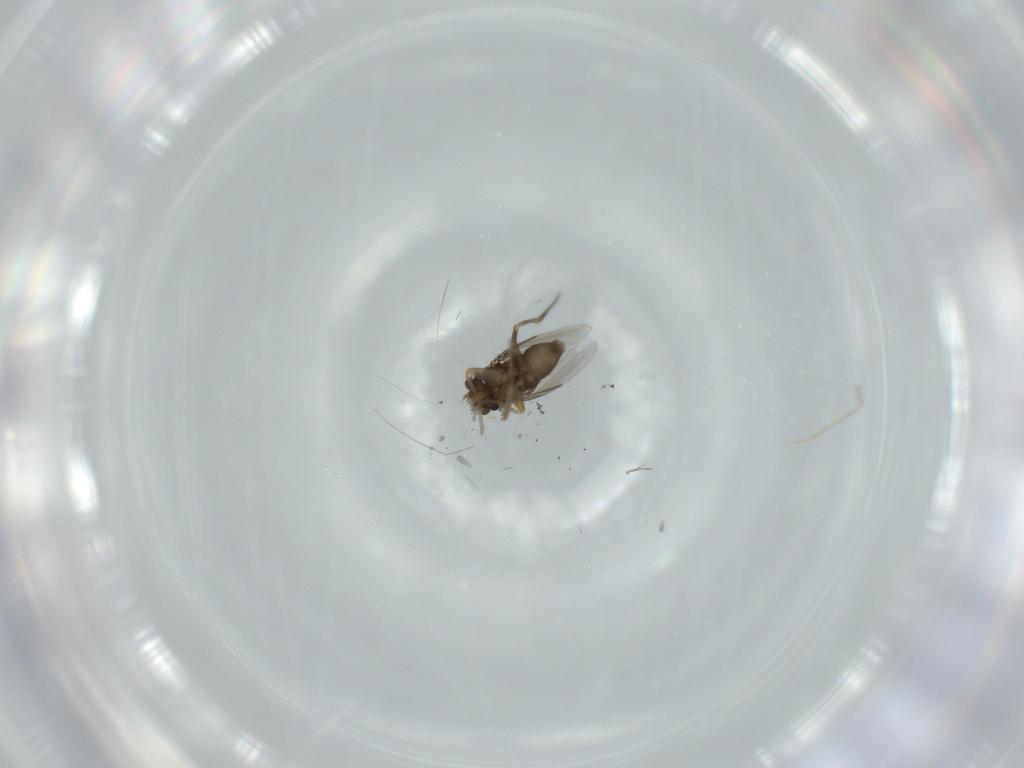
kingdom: Animalia
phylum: Arthropoda
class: Insecta
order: Diptera
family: Phoridae
